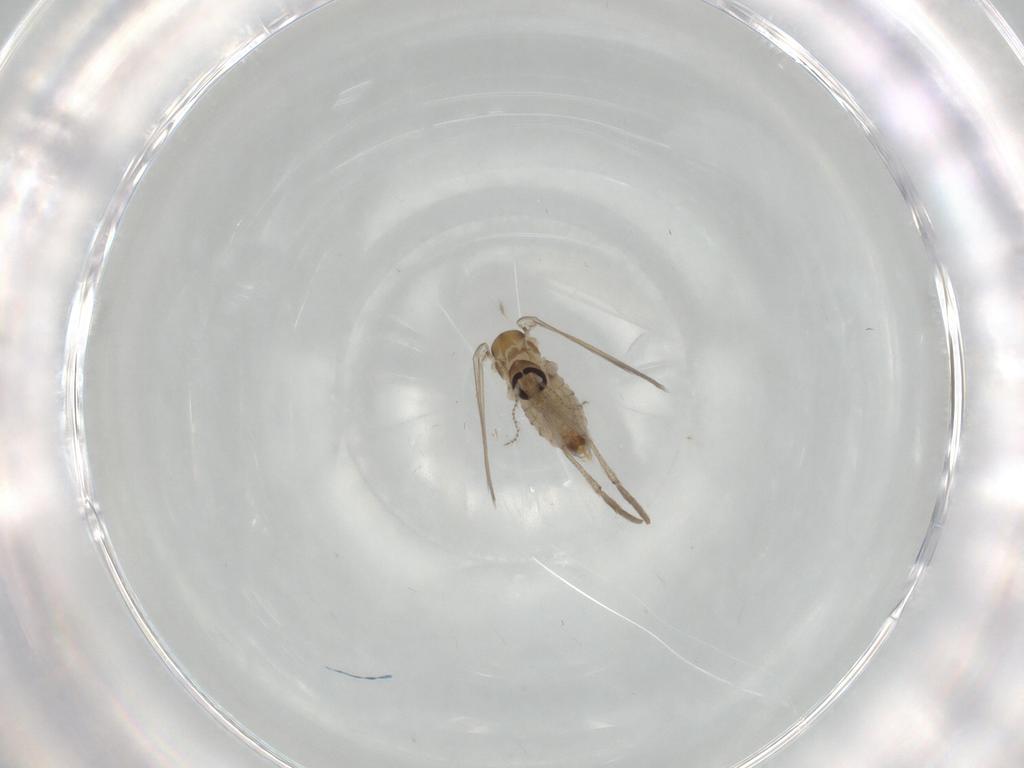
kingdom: Animalia
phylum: Arthropoda
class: Insecta
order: Diptera
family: Psychodidae
